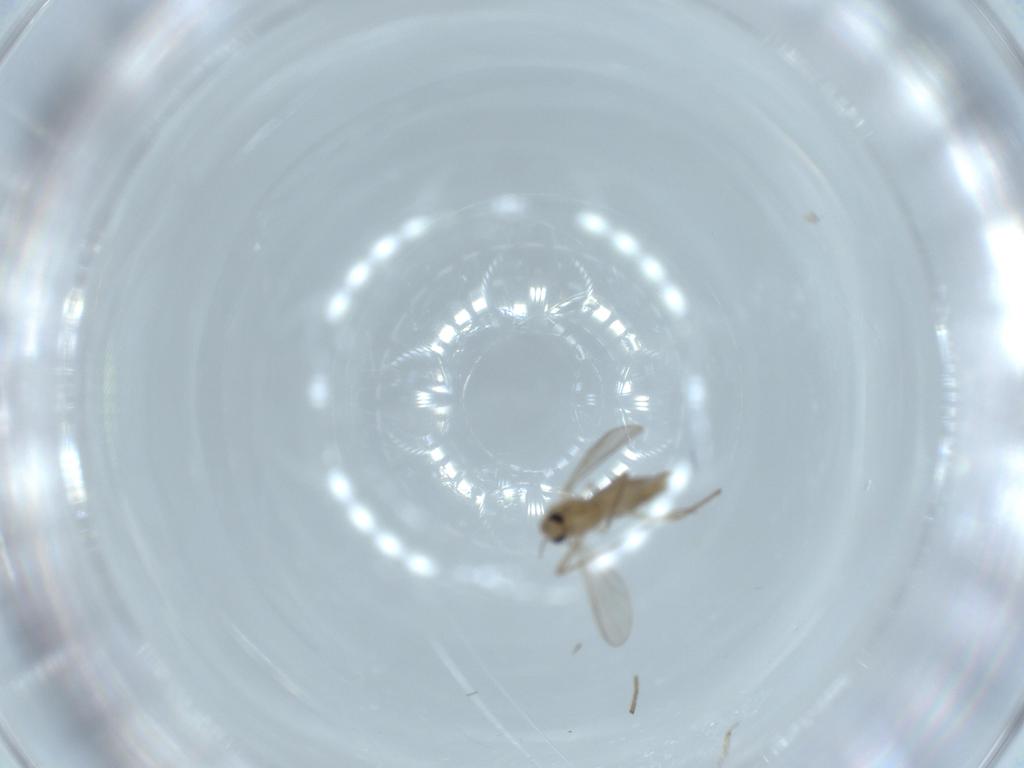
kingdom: Animalia
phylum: Arthropoda
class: Insecta
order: Diptera
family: Chironomidae
